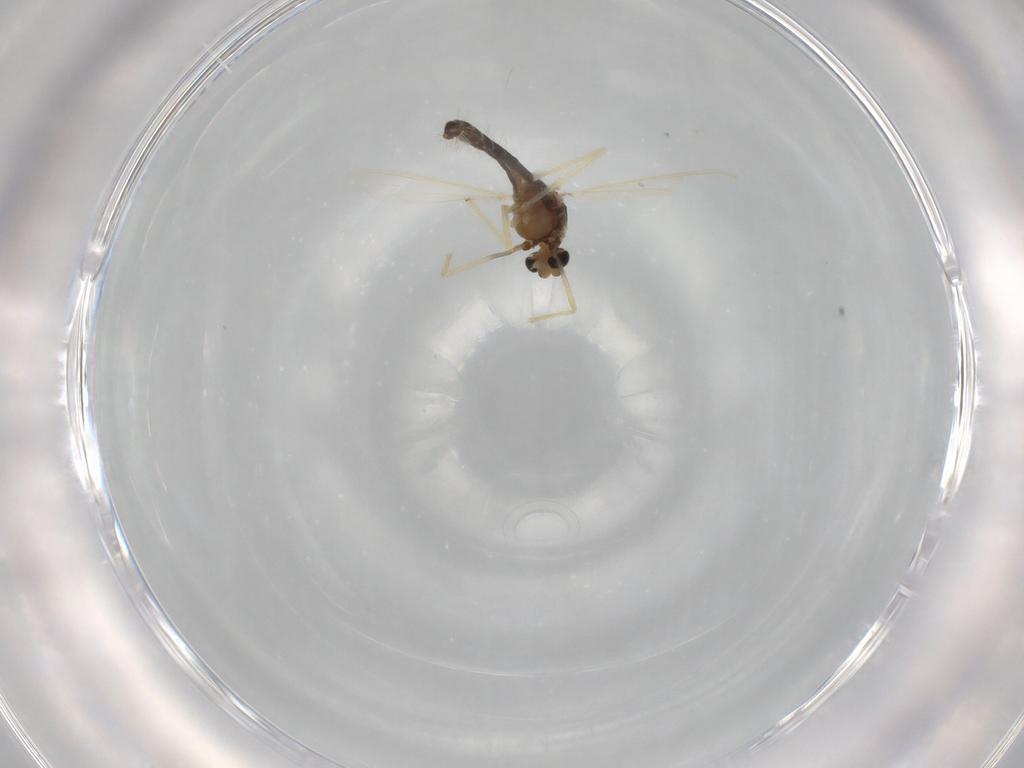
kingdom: Animalia
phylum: Arthropoda
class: Insecta
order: Diptera
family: Chironomidae
